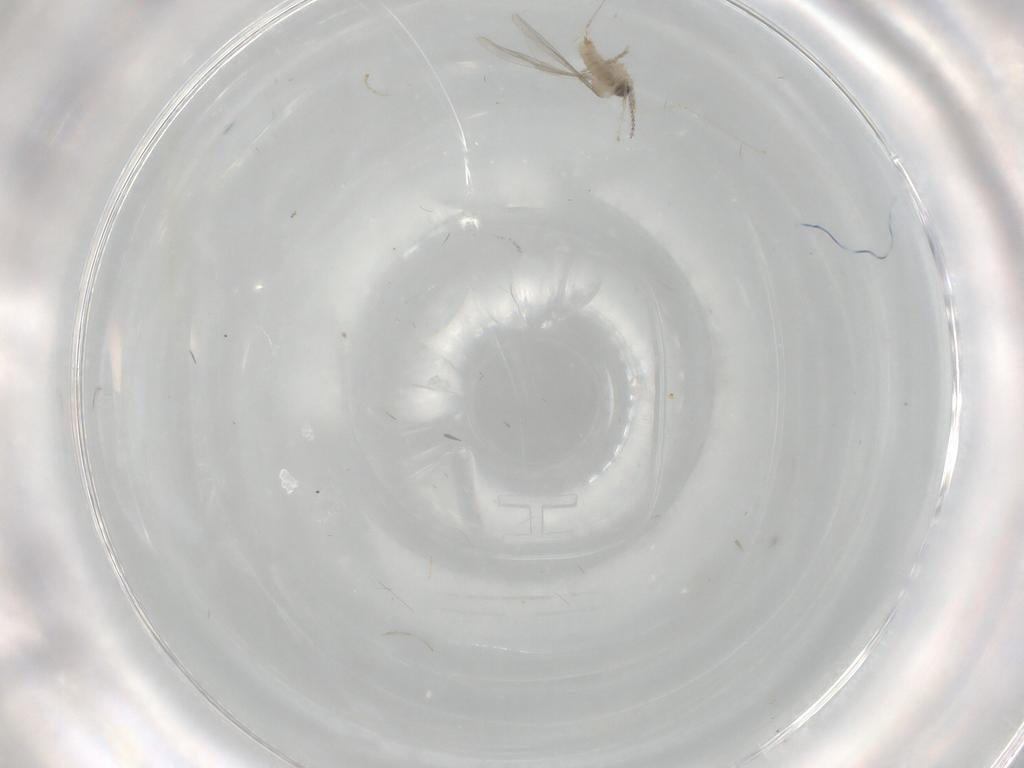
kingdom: Animalia
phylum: Arthropoda
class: Insecta
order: Diptera
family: Cecidomyiidae
